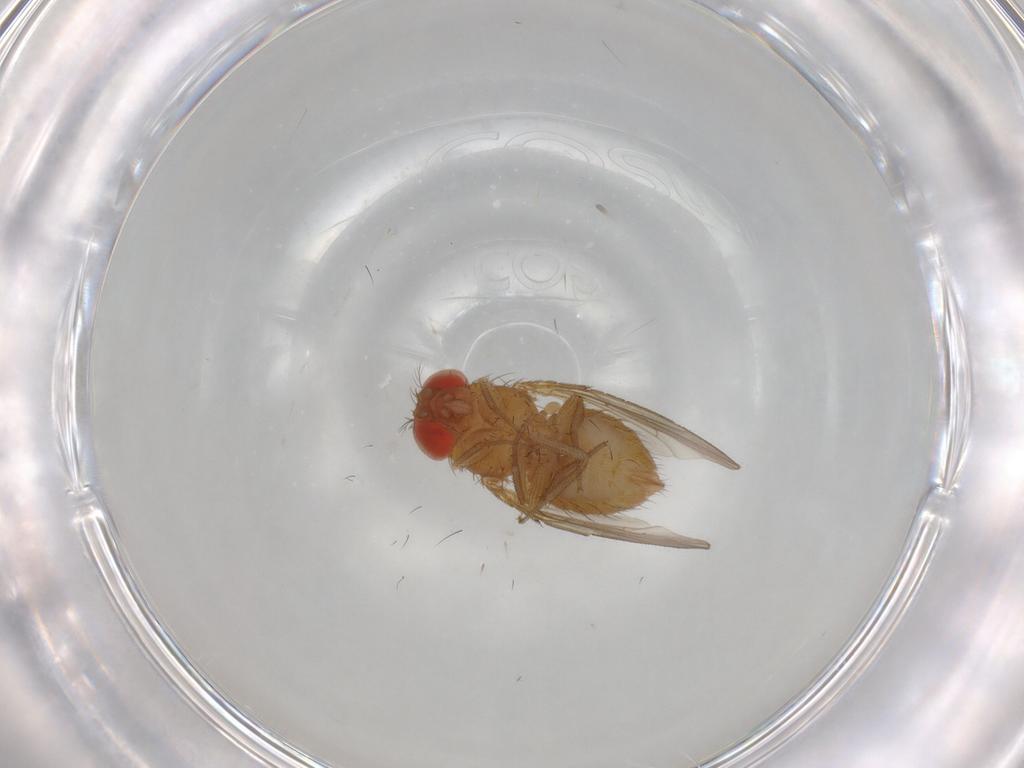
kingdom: Animalia
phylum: Arthropoda
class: Insecta
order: Diptera
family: Drosophilidae
